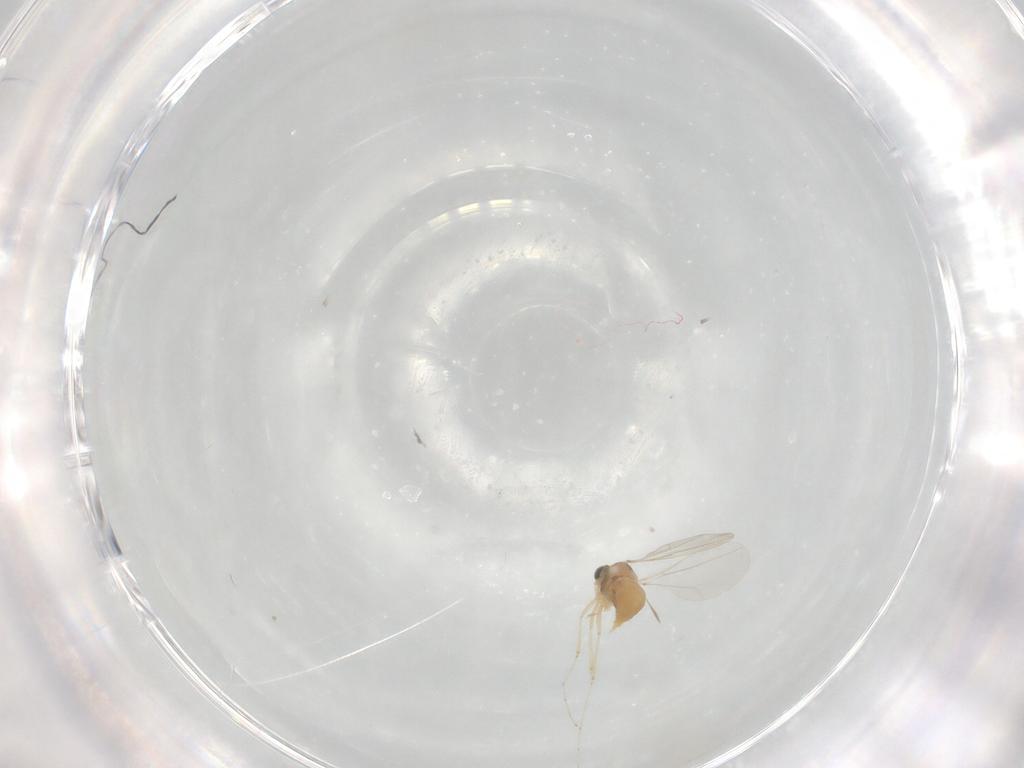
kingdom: Animalia
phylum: Arthropoda
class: Insecta
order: Diptera
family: Cecidomyiidae
